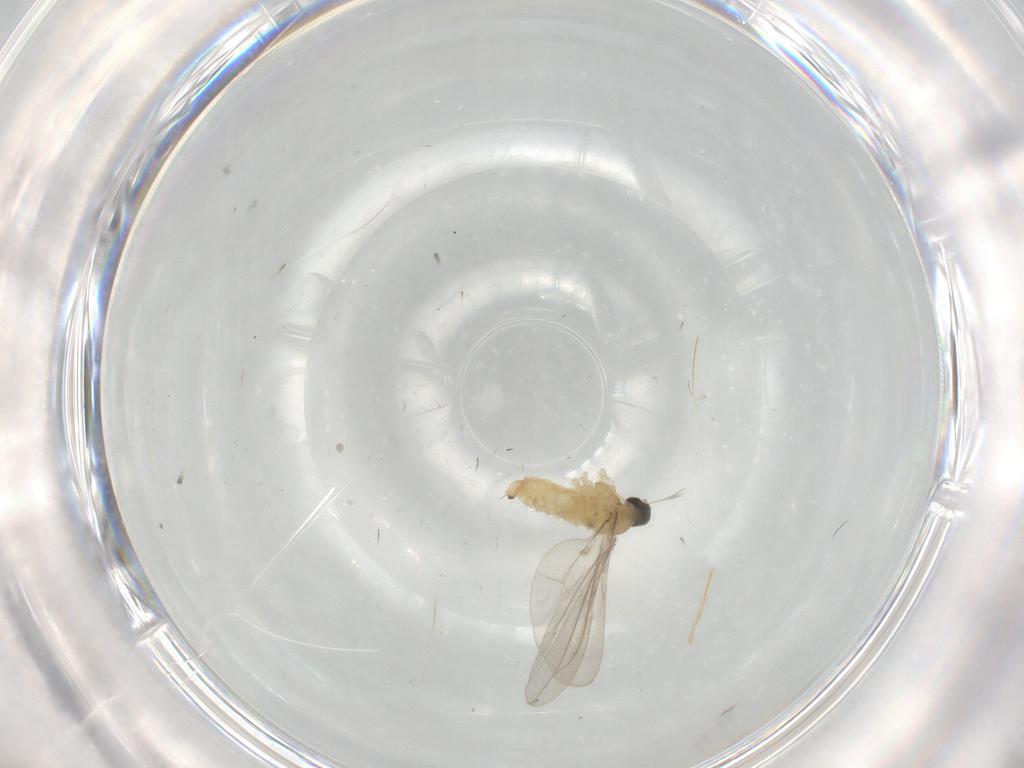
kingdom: Animalia
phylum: Arthropoda
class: Insecta
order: Diptera
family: Cecidomyiidae
